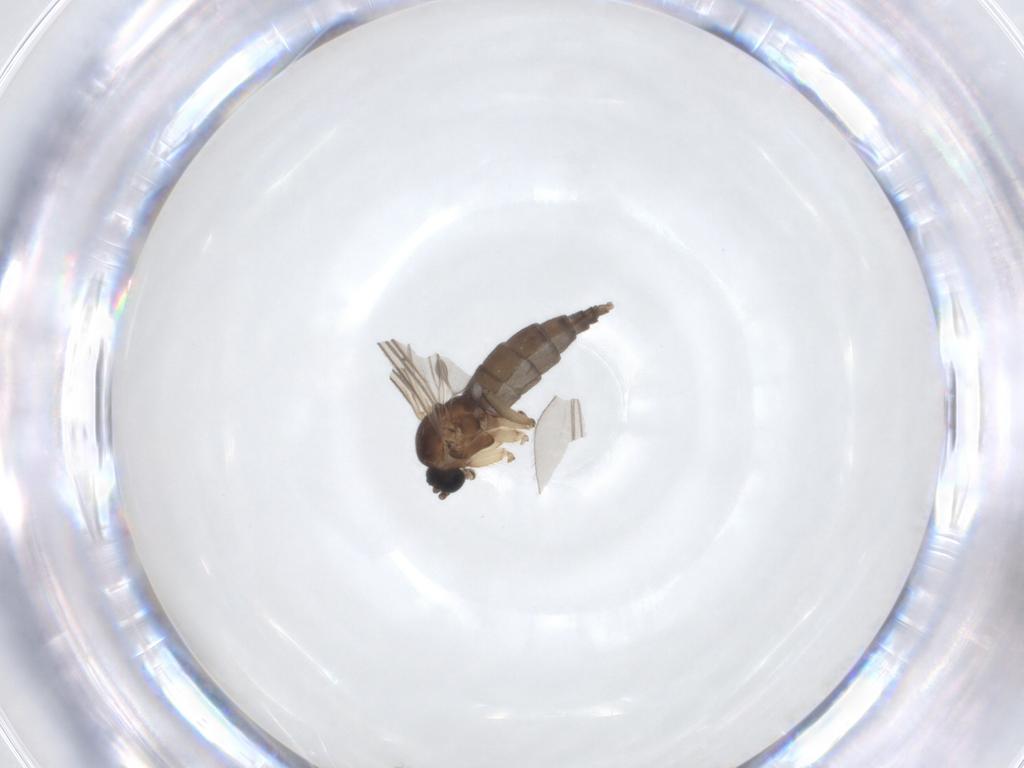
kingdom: Animalia
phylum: Arthropoda
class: Insecta
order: Diptera
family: Sciaridae
